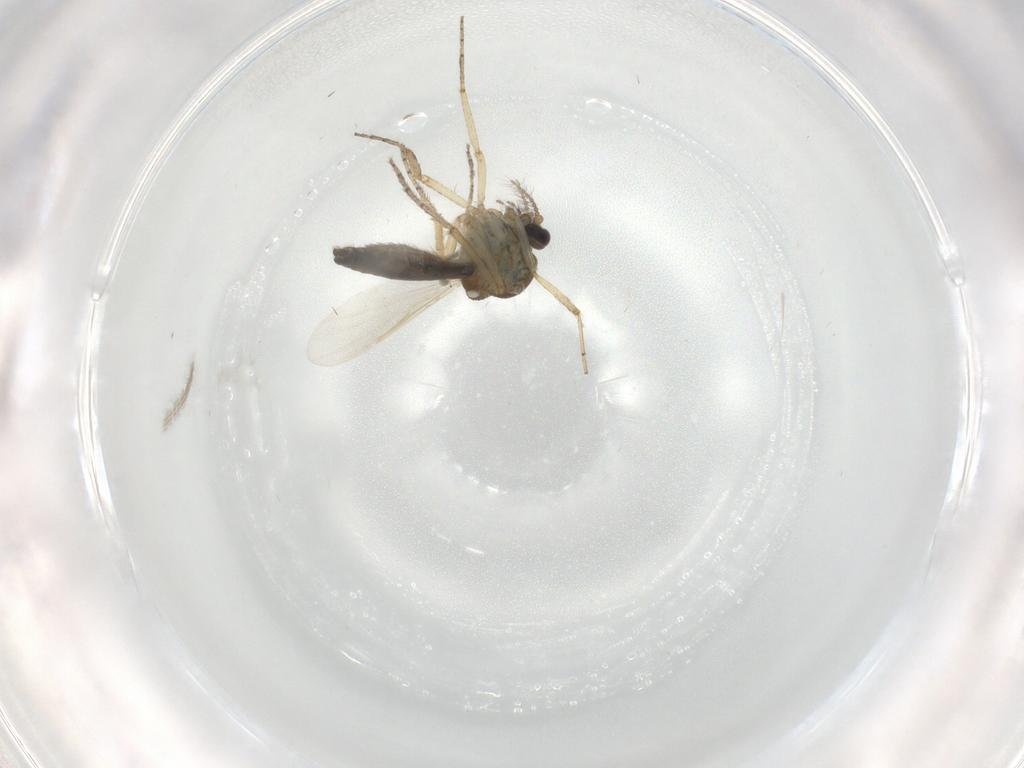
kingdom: Animalia
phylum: Arthropoda
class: Insecta
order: Diptera
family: Ceratopogonidae
